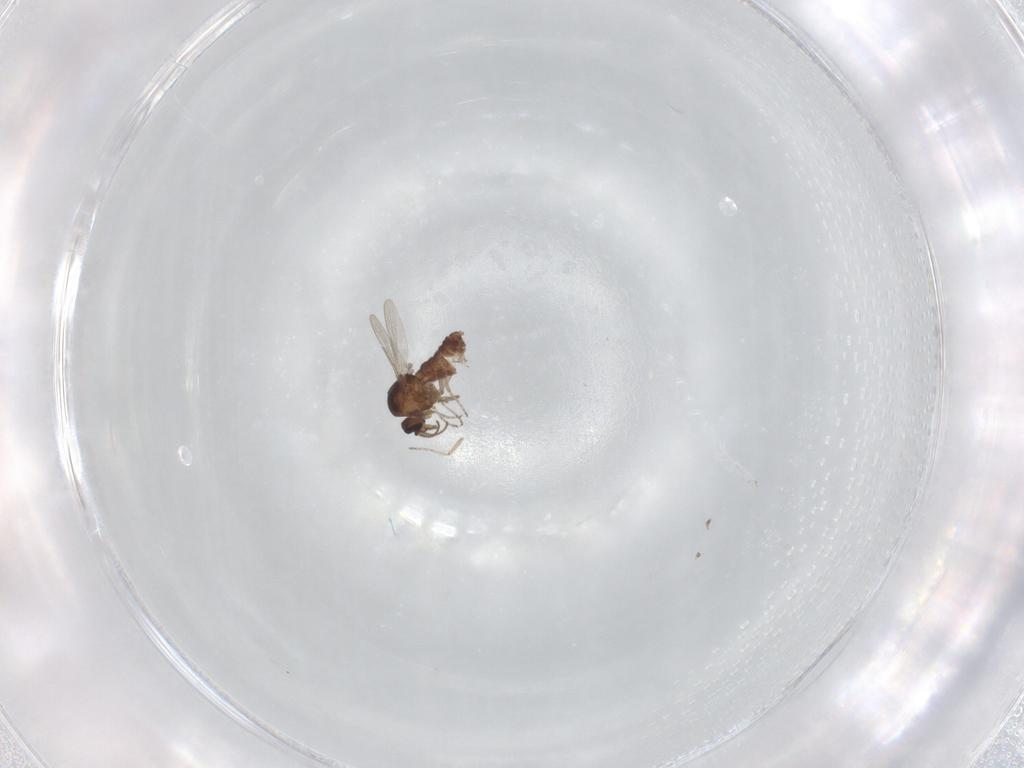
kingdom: Animalia
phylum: Arthropoda
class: Insecta
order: Diptera
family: Ceratopogonidae
